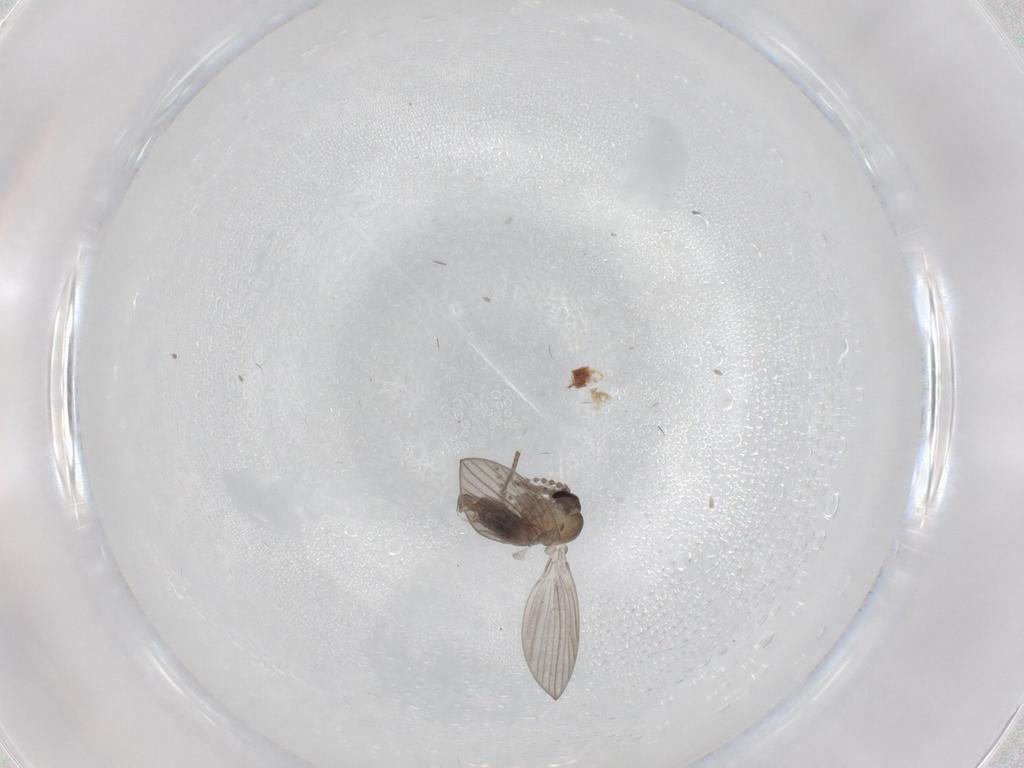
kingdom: Animalia
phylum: Arthropoda
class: Insecta
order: Diptera
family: Psychodidae
